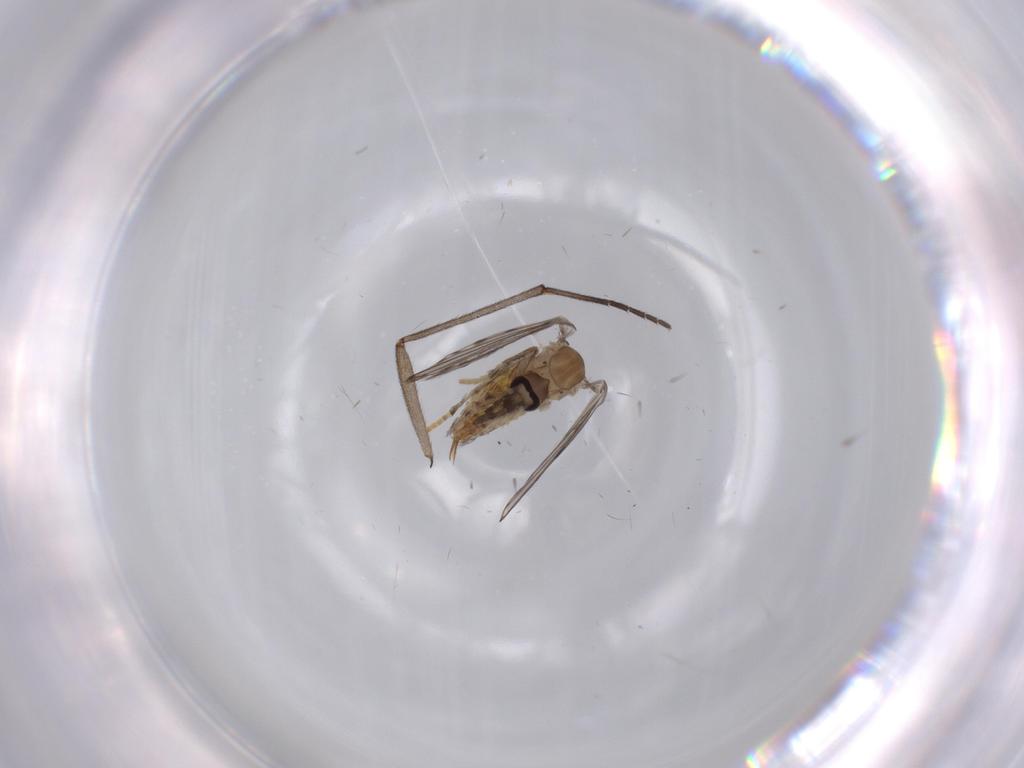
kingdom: Animalia
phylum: Arthropoda
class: Insecta
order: Diptera
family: Psychodidae
